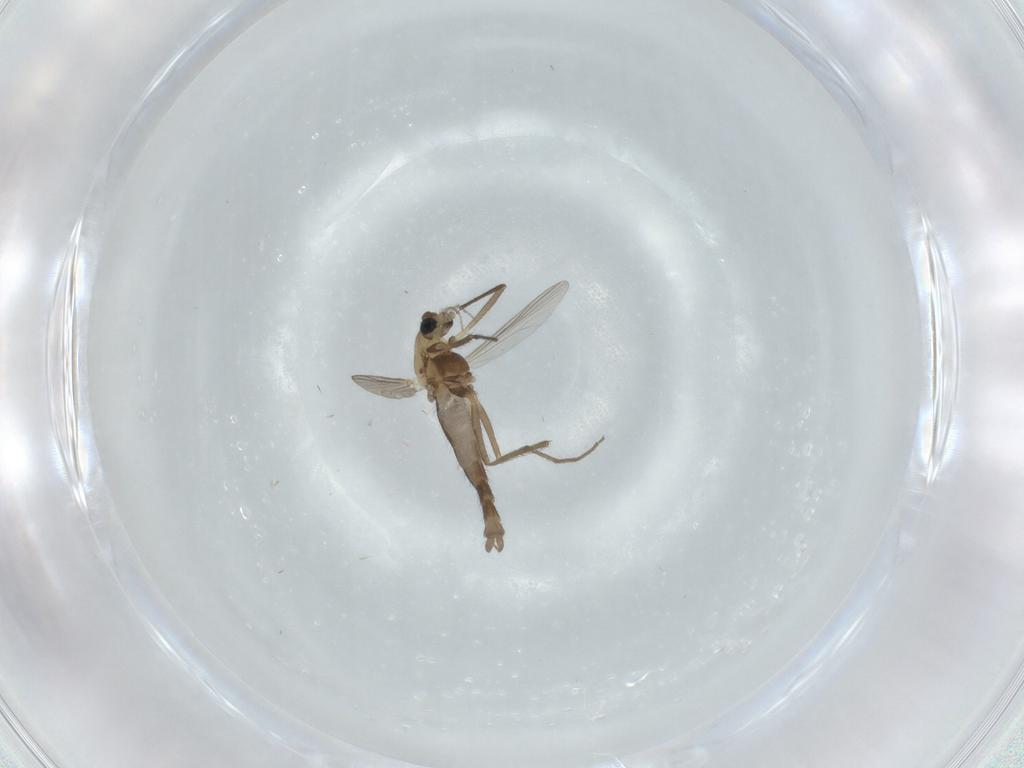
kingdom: Animalia
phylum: Arthropoda
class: Insecta
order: Diptera
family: Chironomidae
